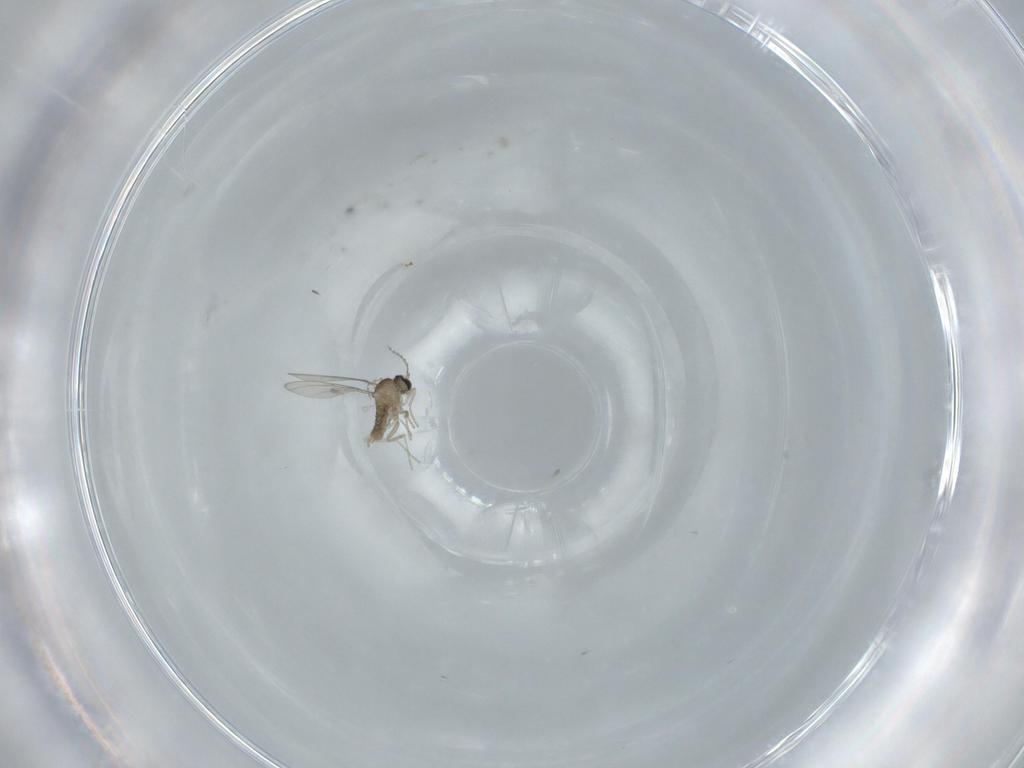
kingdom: Animalia
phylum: Arthropoda
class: Insecta
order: Diptera
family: Cecidomyiidae
